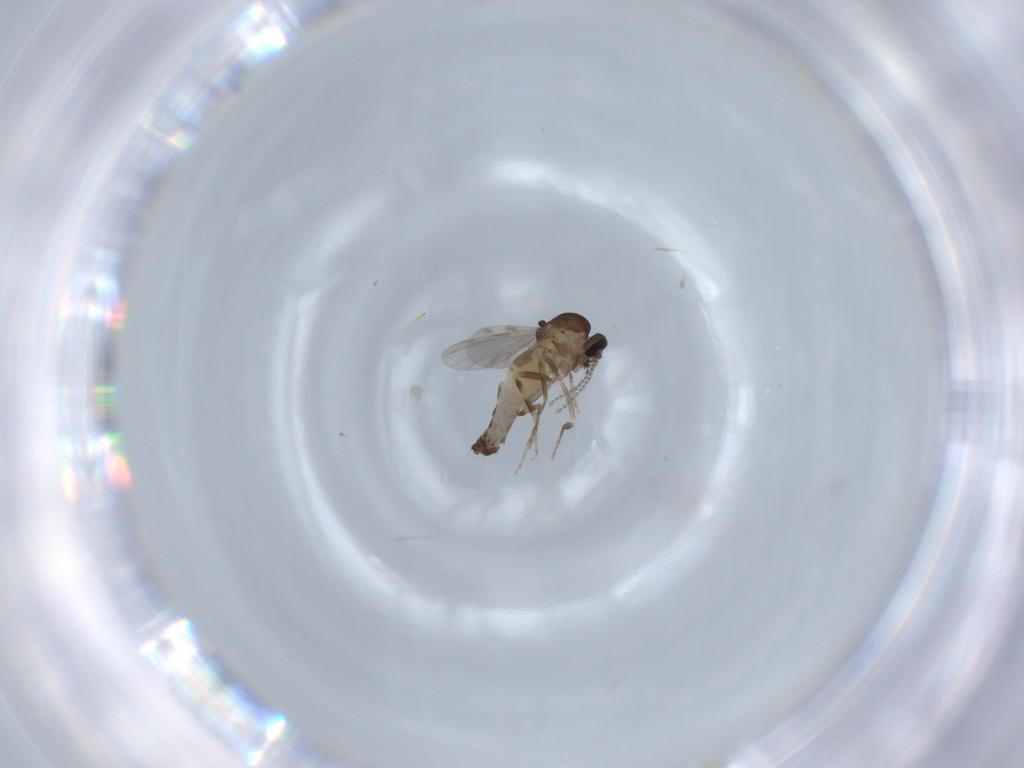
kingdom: Animalia
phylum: Arthropoda
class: Insecta
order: Diptera
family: Ceratopogonidae
